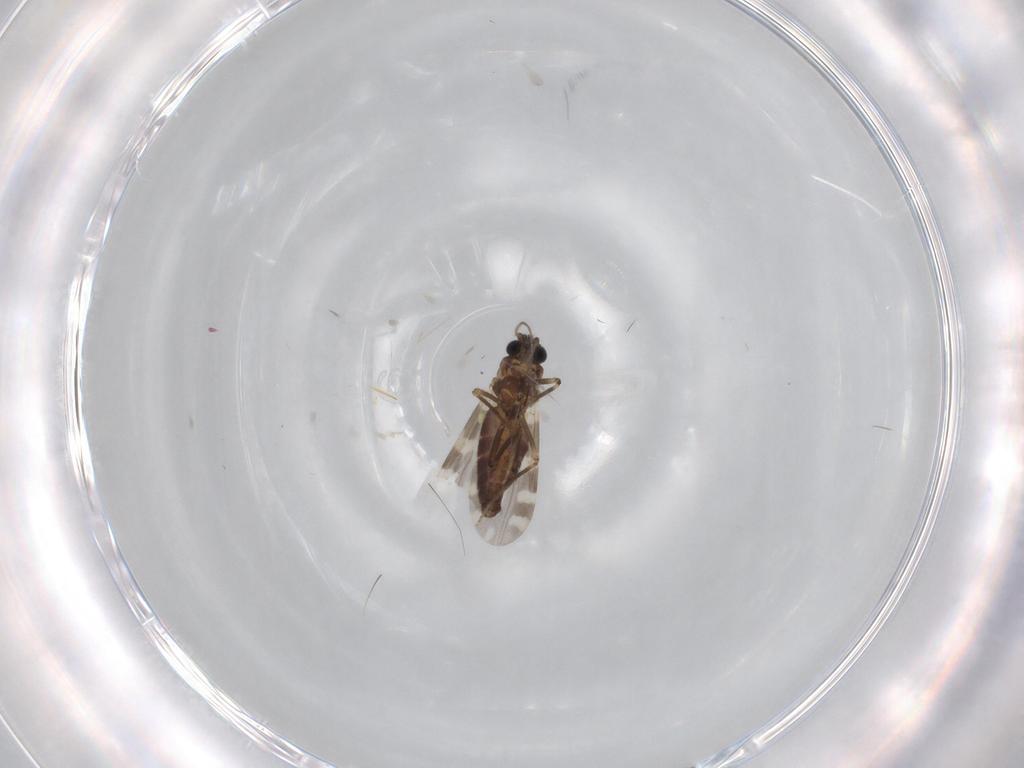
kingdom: Animalia
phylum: Arthropoda
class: Insecta
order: Diptera
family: Ceratopogonidae
